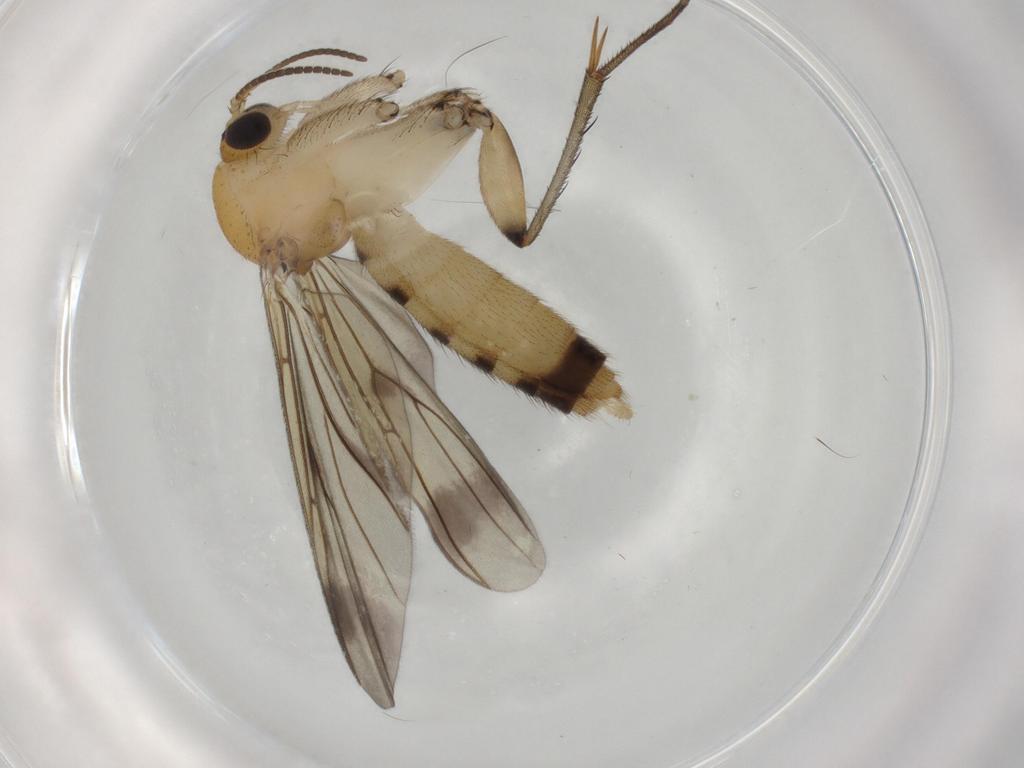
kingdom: Animalia
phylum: Arthropoda
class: Insecta
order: Diptera
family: Mycetophilidae
